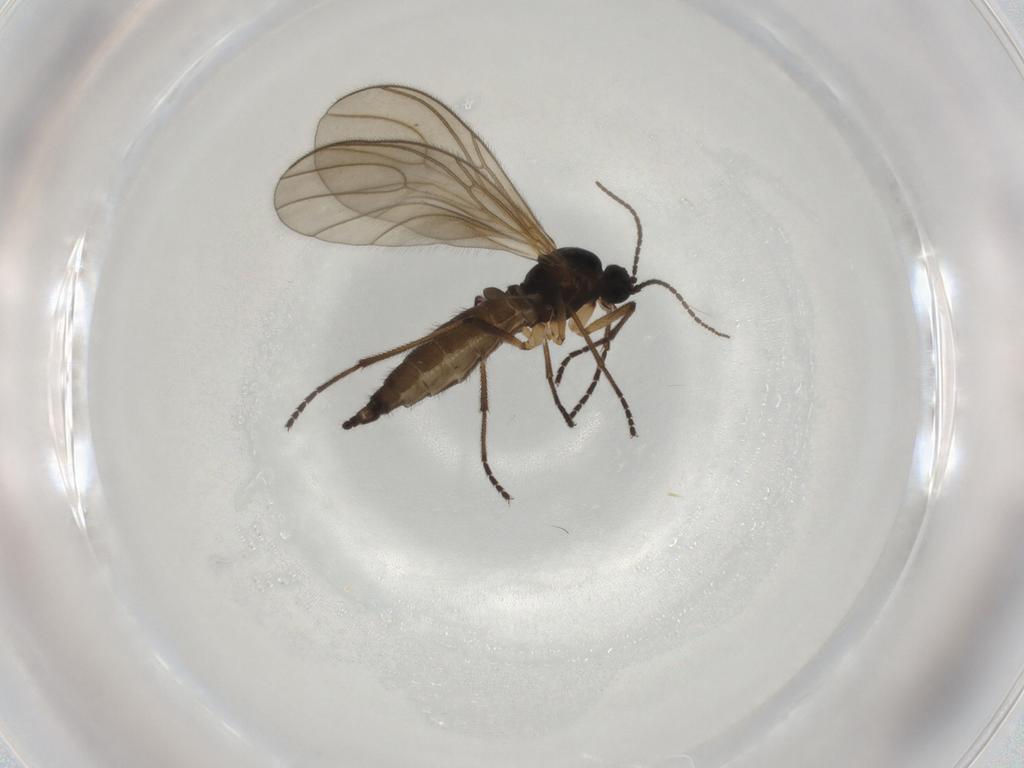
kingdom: Animalia
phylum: Arthropoda
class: Insecta
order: Diptera
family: Sciaridae
